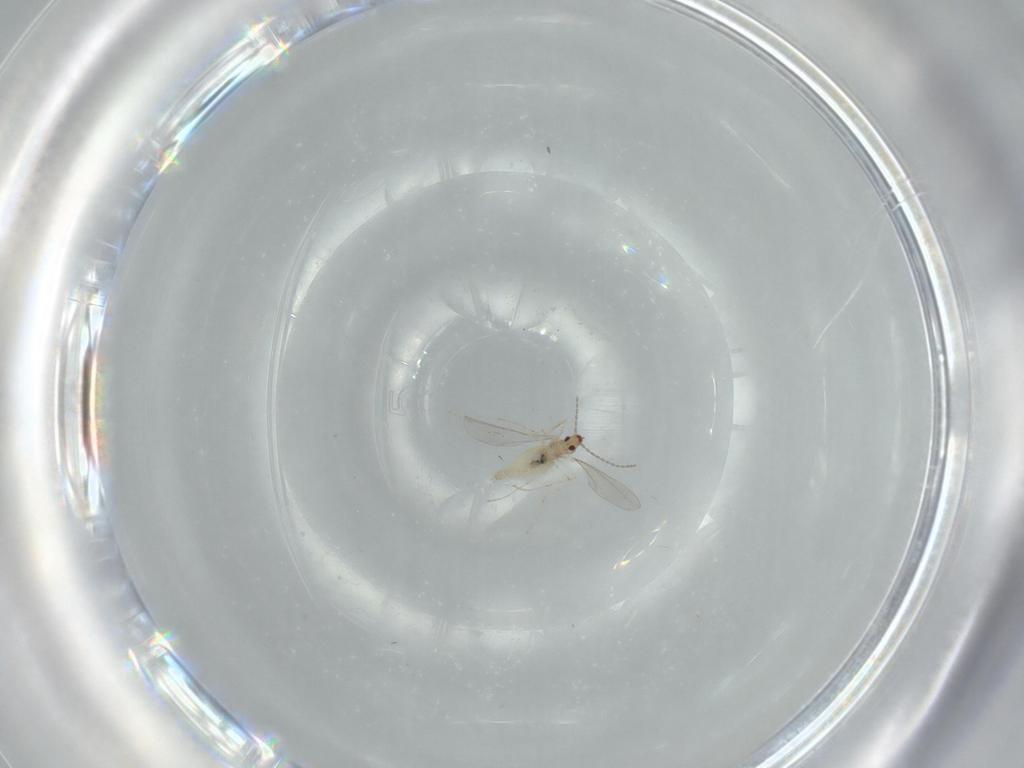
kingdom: Animalia
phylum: Arthropoda
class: Insecta
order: Diptera
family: Cecidomyiidae
